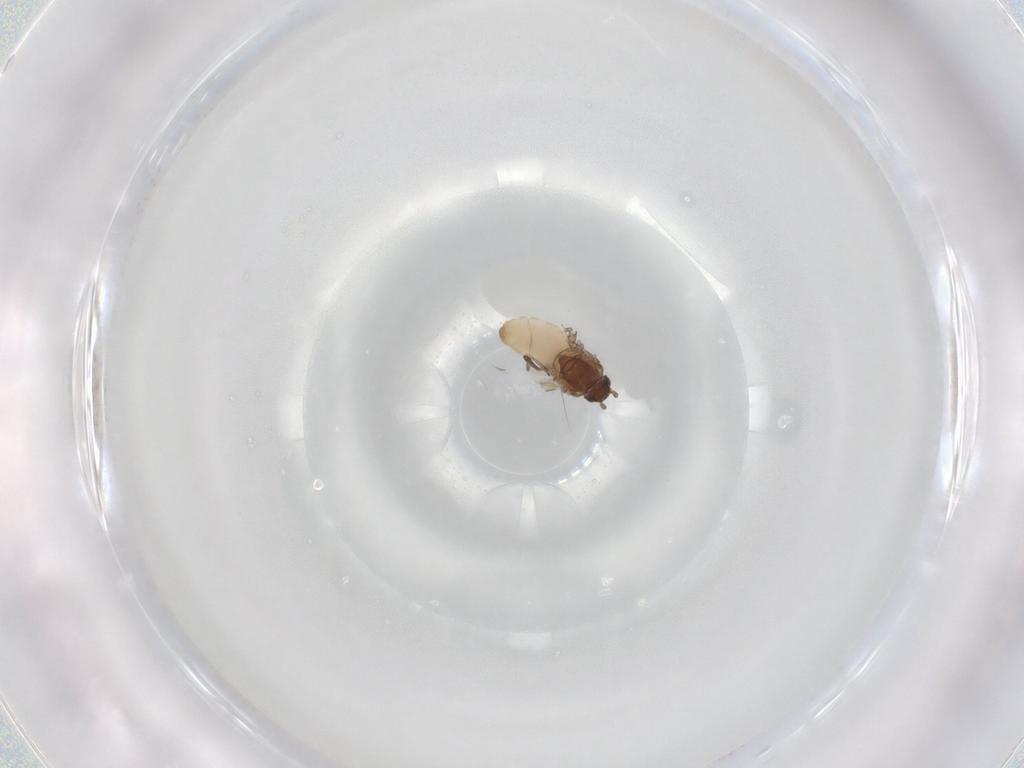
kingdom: Animalia
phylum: Arthropoda
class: Insecta
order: Hemiptera
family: Aphididae
